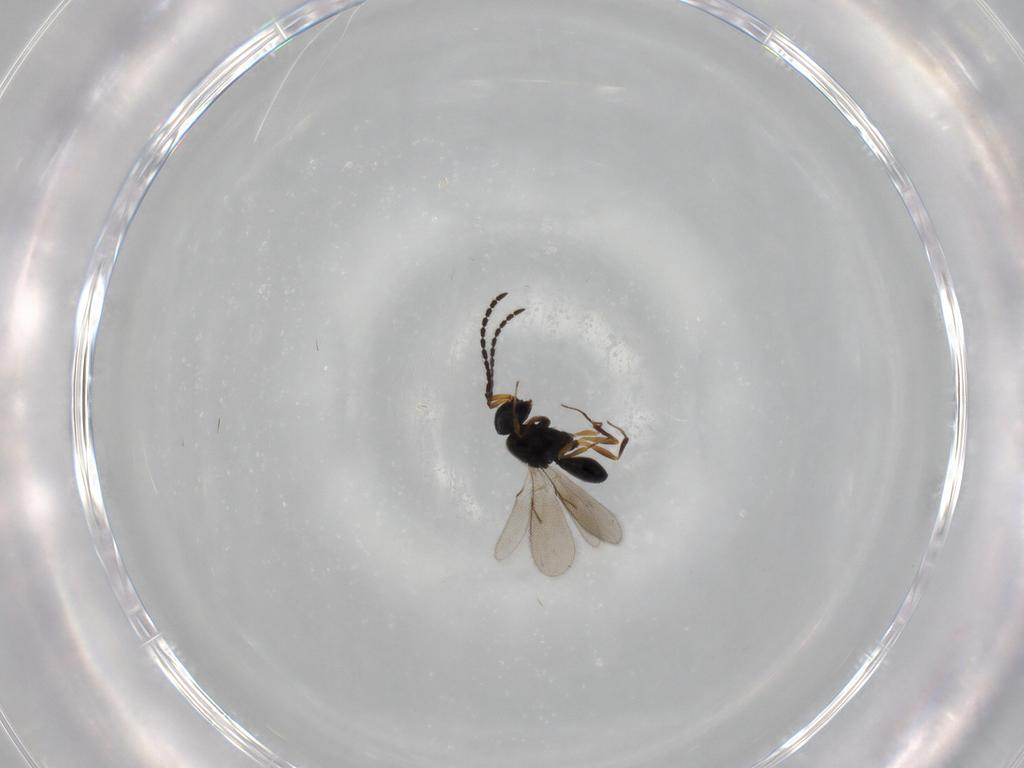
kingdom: Animalia
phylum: Arthropoda
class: Insecta
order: Hymenoptera
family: Scelionidae
